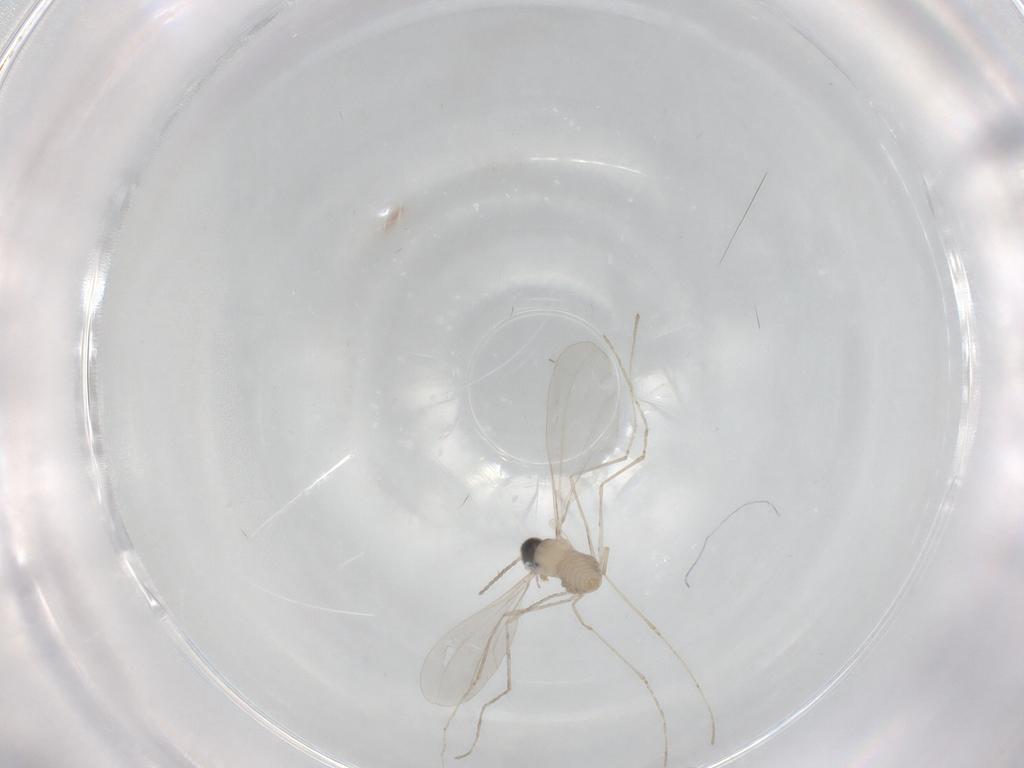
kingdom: Animalia
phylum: Arthropoda
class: Insecta
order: Diptera
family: Cecidomyiidae
